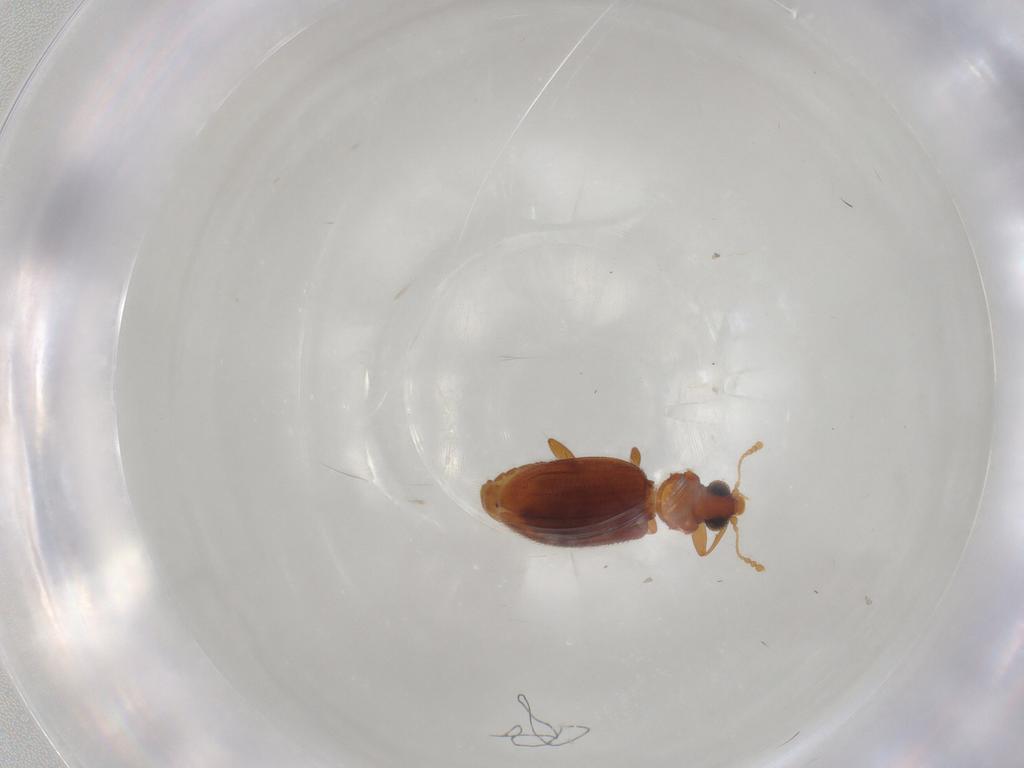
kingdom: Animalia
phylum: Arthropoda
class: Insecta
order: Coleoptera
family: Latridiidae
